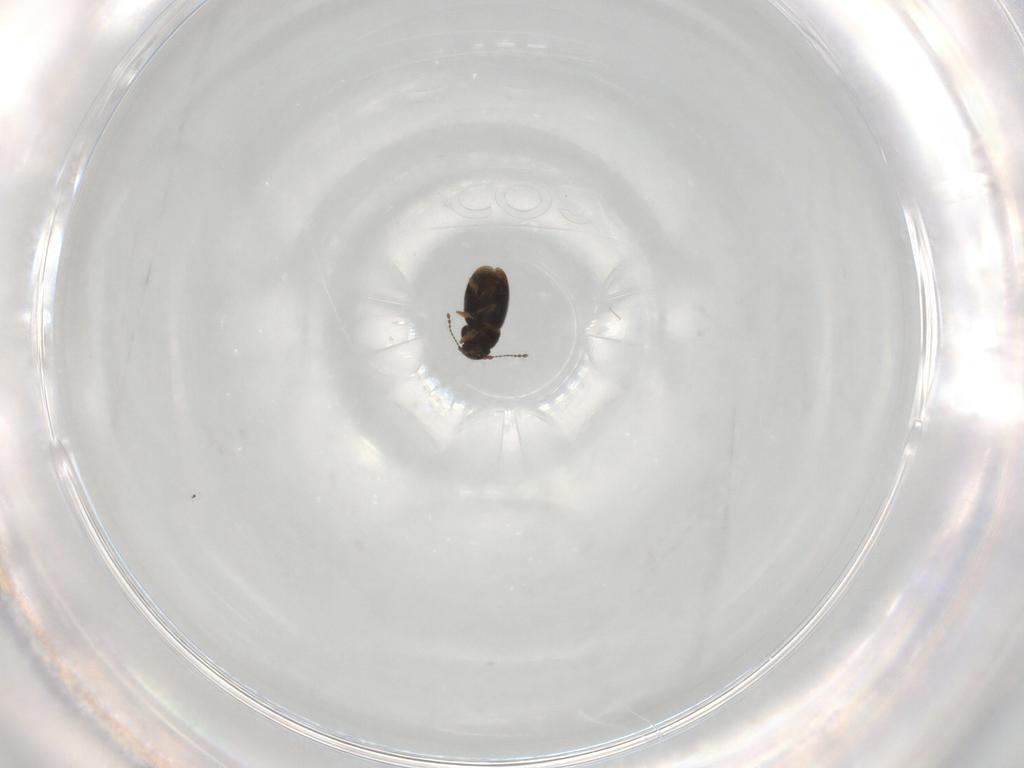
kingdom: Animalia
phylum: Arthropoda
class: Insecta
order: Coleoptera
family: Ptiliidae
